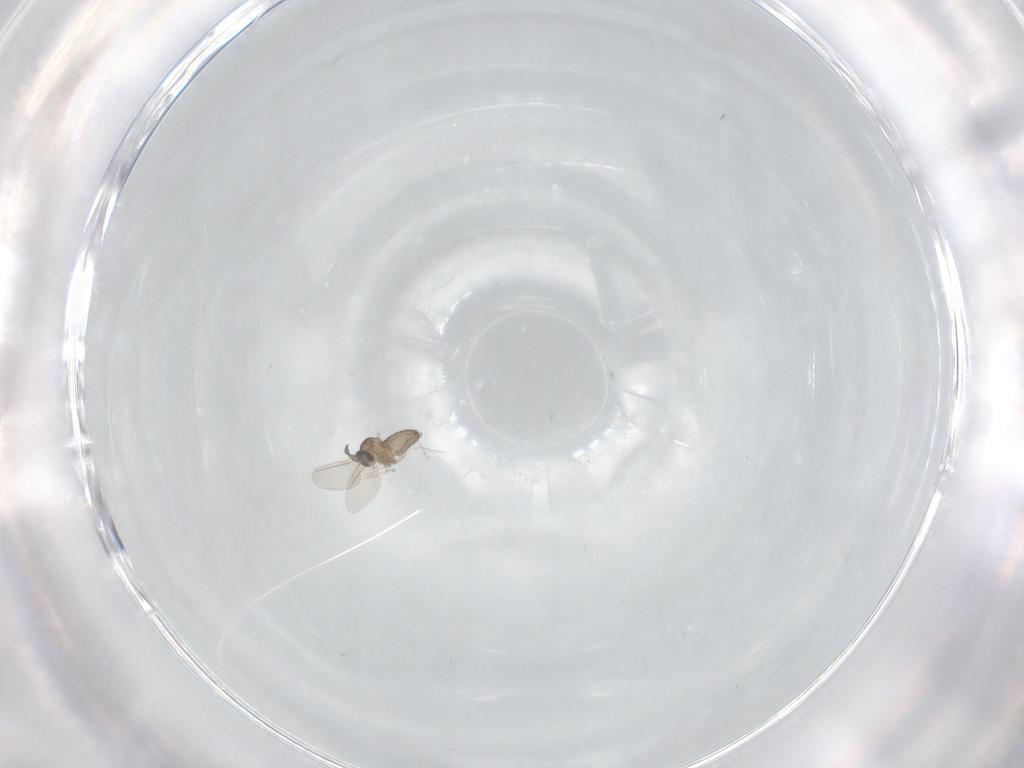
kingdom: Animalia
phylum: Arthropoda
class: Insecta
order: Diptera
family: Cecidomyiidae
